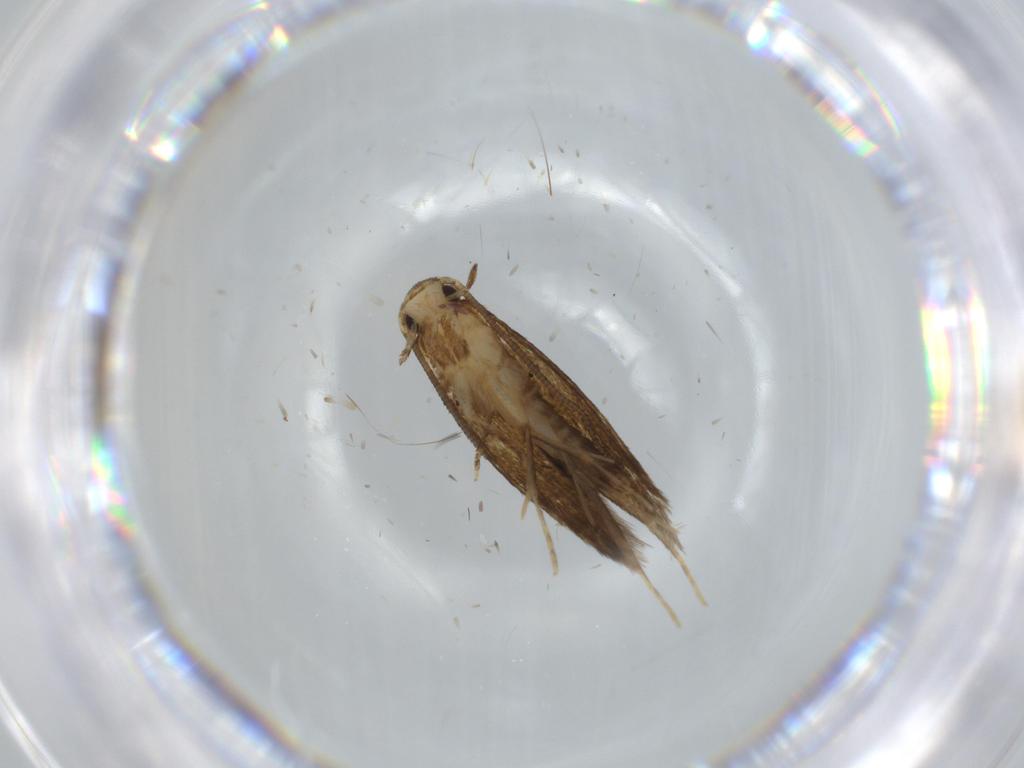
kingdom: Animalia
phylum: Arthropoda
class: Insecta
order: Lepidoptera
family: Tineidae
